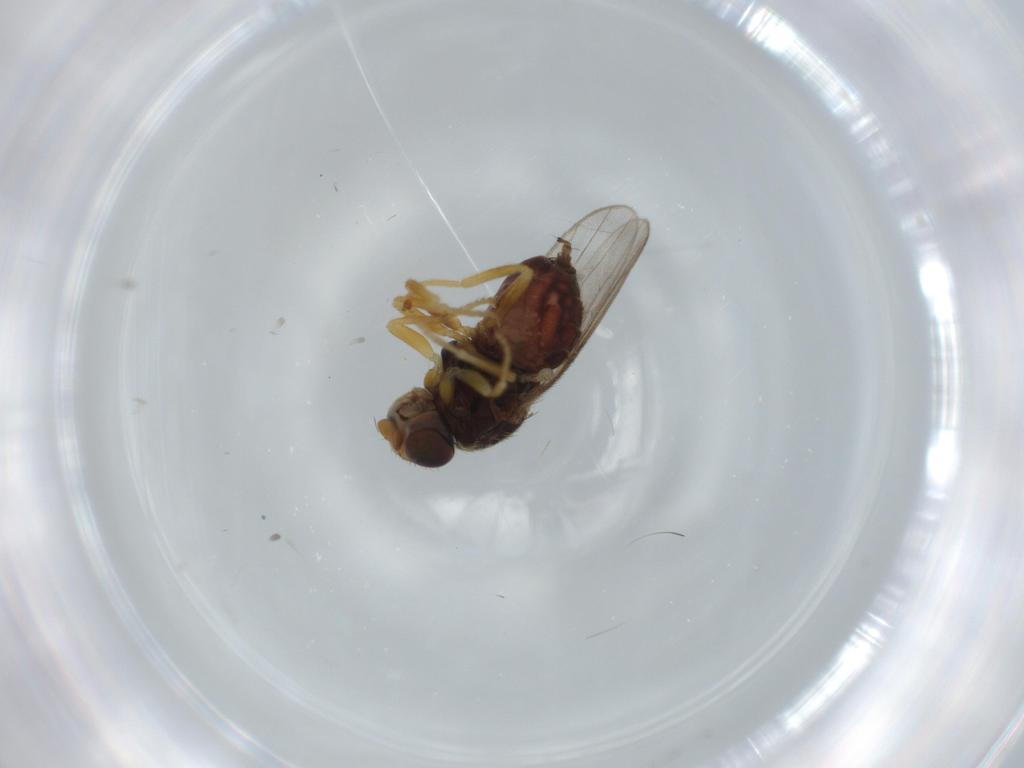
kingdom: Animalia
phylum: Arthropoda
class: Insecta
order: Diptera
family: Chloropidae
